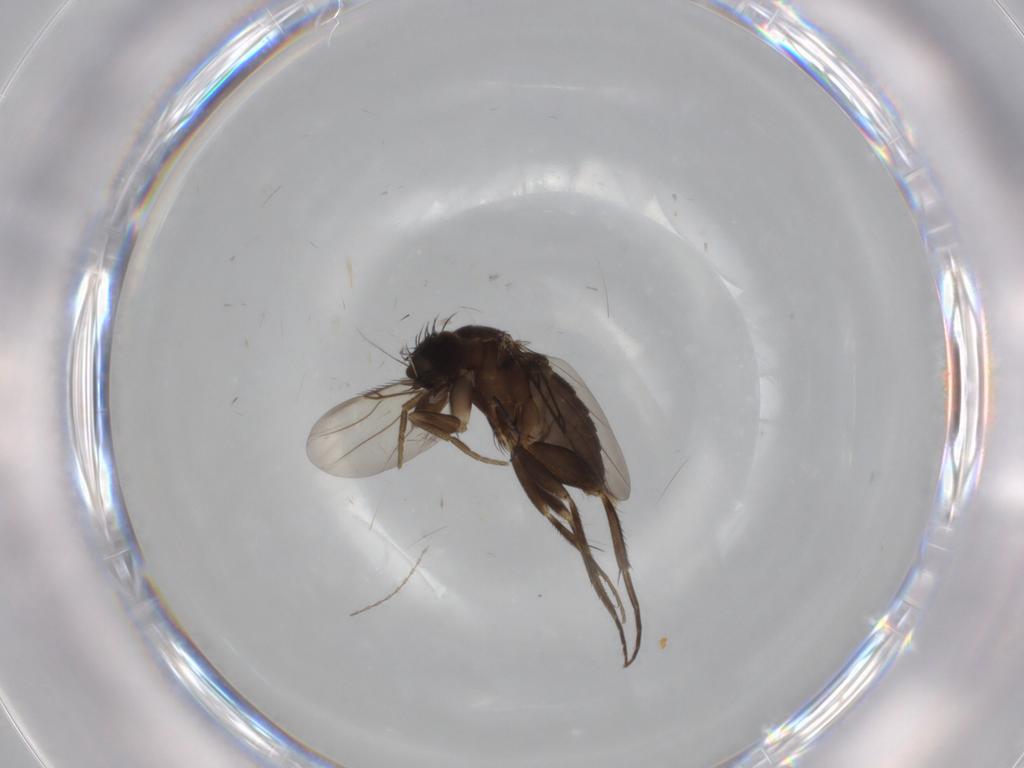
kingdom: Animalia
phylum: Arthropoda
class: Insecta
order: Diptera
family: Phoridae
